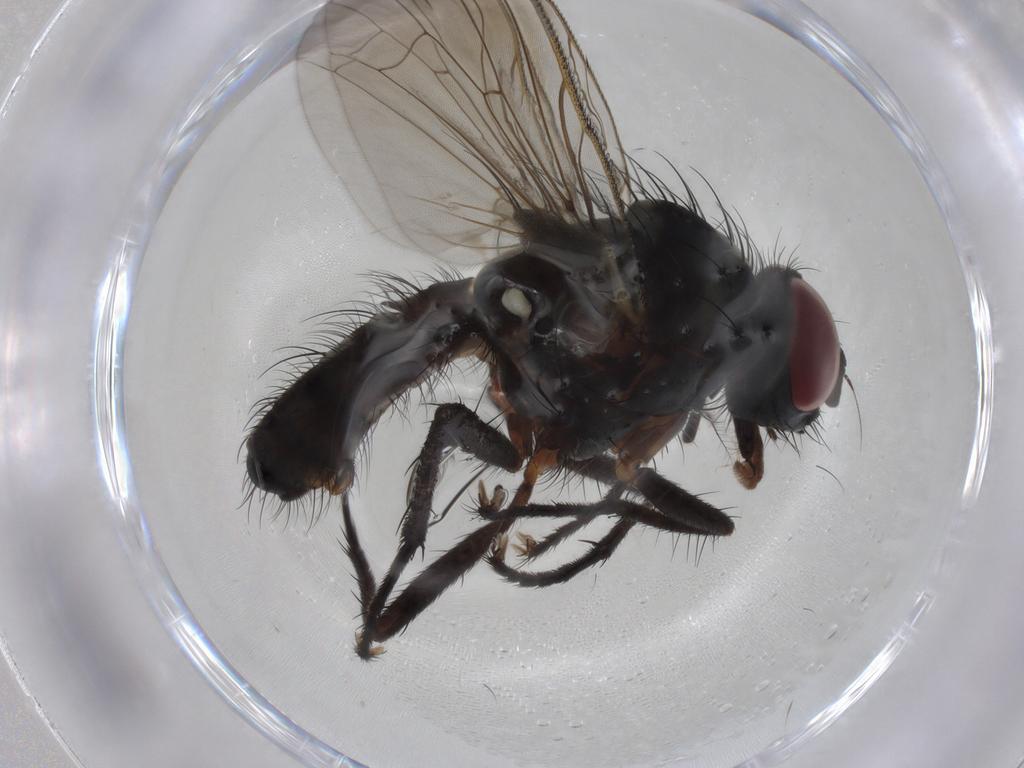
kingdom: Animalia
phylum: Arthropoda
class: Insecta
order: Diptera
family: Anthomyiidae
